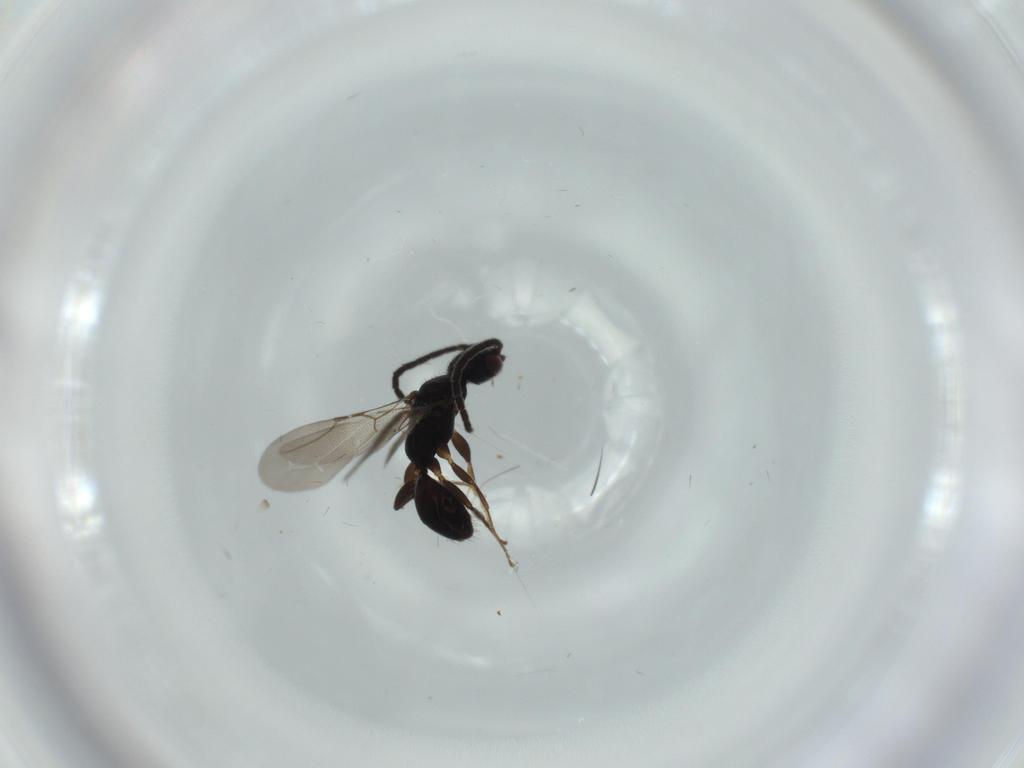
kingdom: Animalia
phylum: Arthropoda
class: Insecta
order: Hymenoptera
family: Bethylidae
